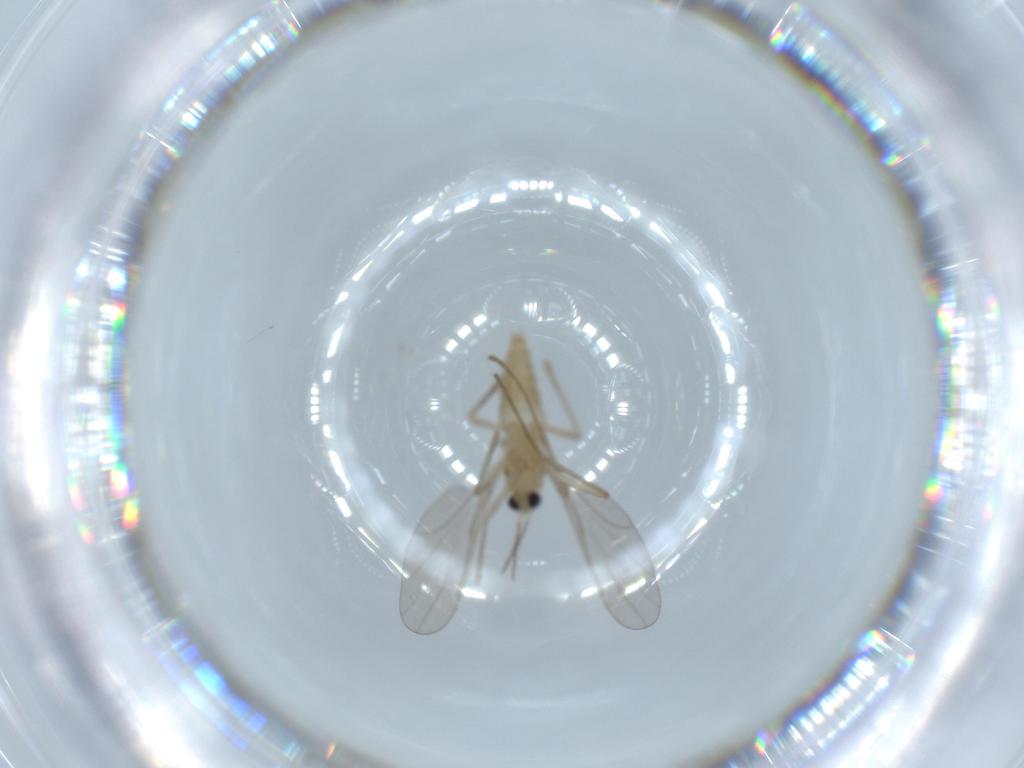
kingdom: Animalia
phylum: Arthropoda
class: Insecta
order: Diptera
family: Cecidomyiidae
